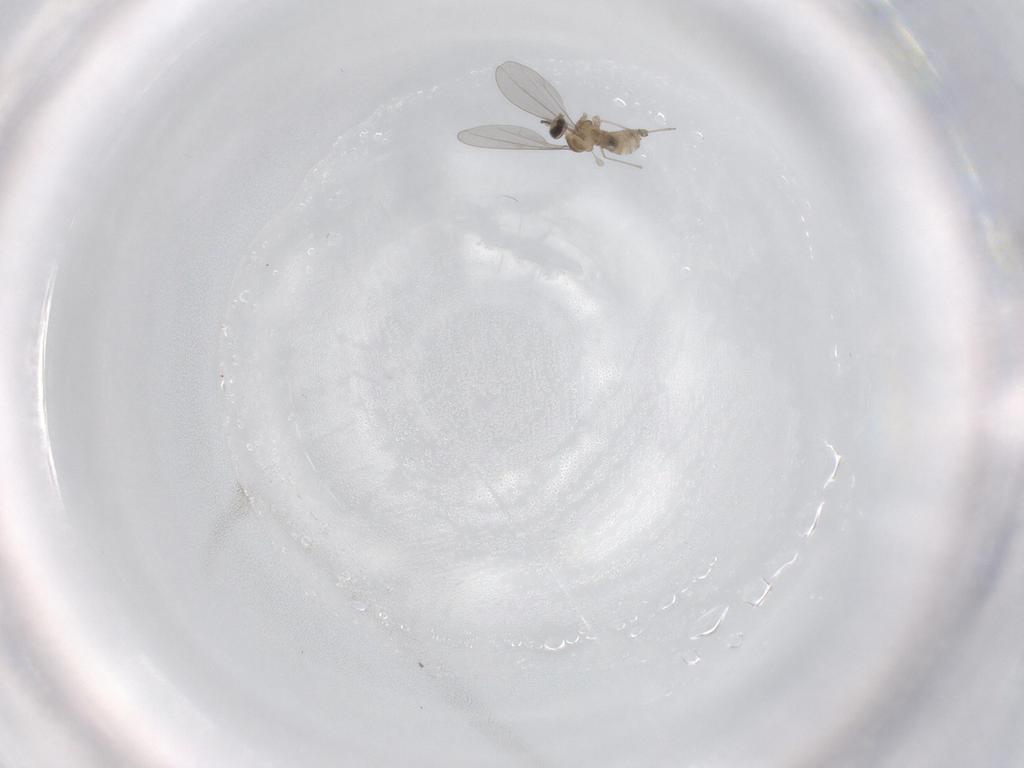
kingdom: Animalia
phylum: Arthropoda
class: Insecta
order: Diptera
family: Cecidomyiidae
